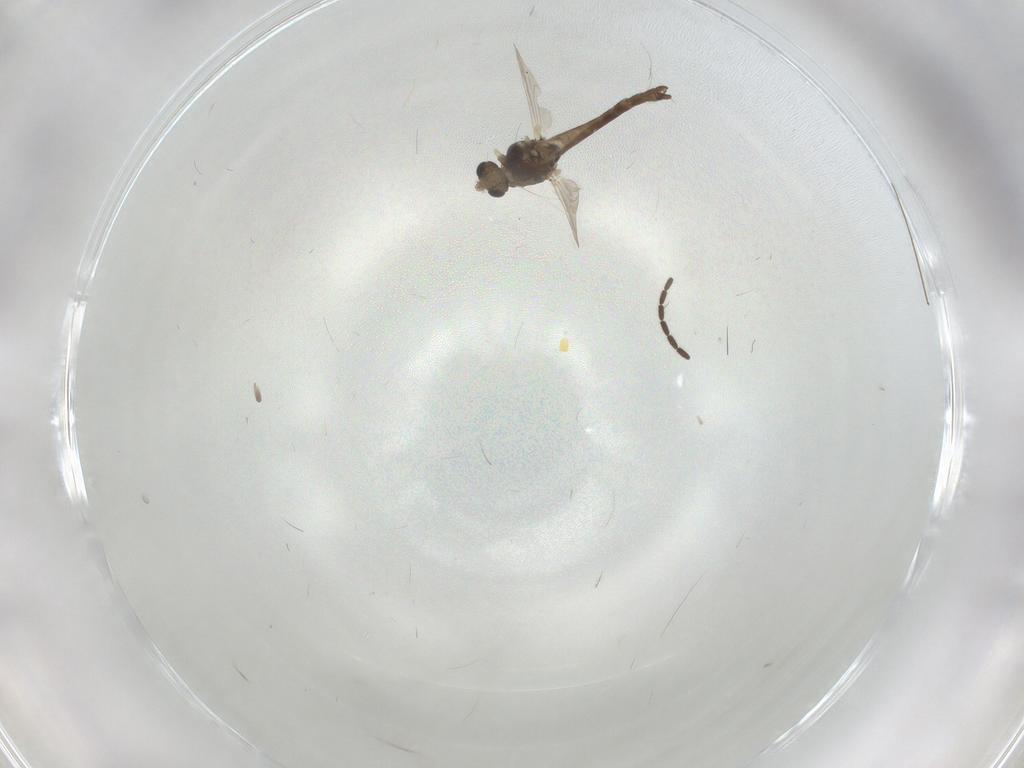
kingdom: Animalia
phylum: Arthropoda
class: Insecta
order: Diptera
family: Chironomidae
